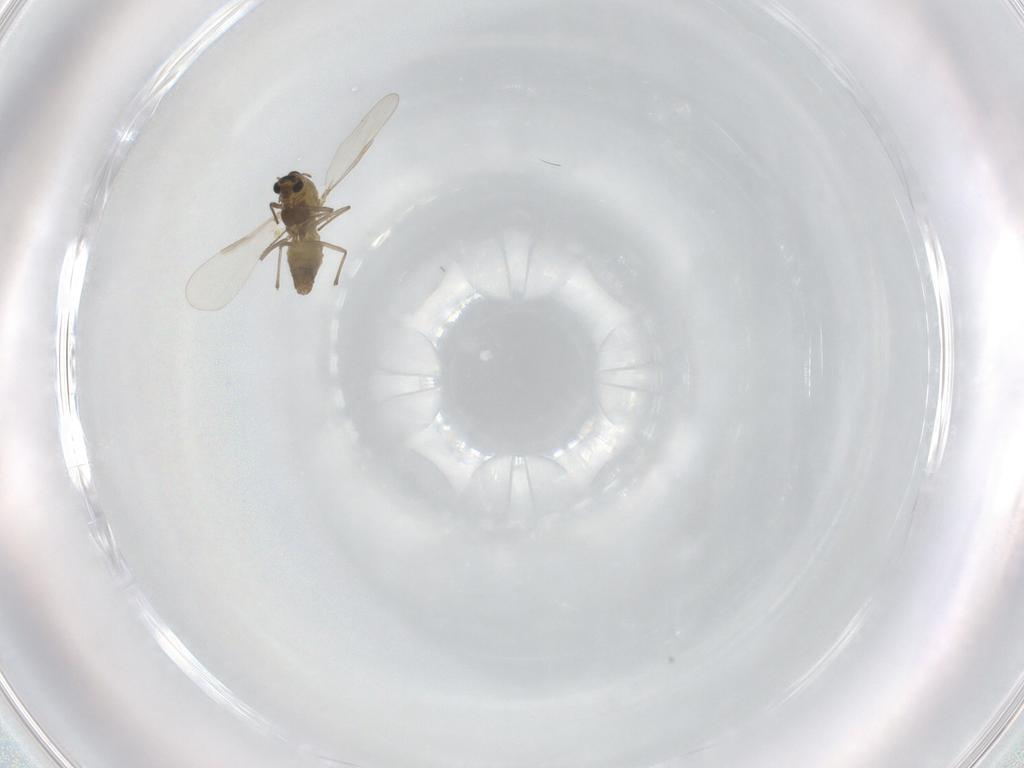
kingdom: Animalia
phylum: Arthropoda
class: Insecta
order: Diptera
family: Chironomidae
